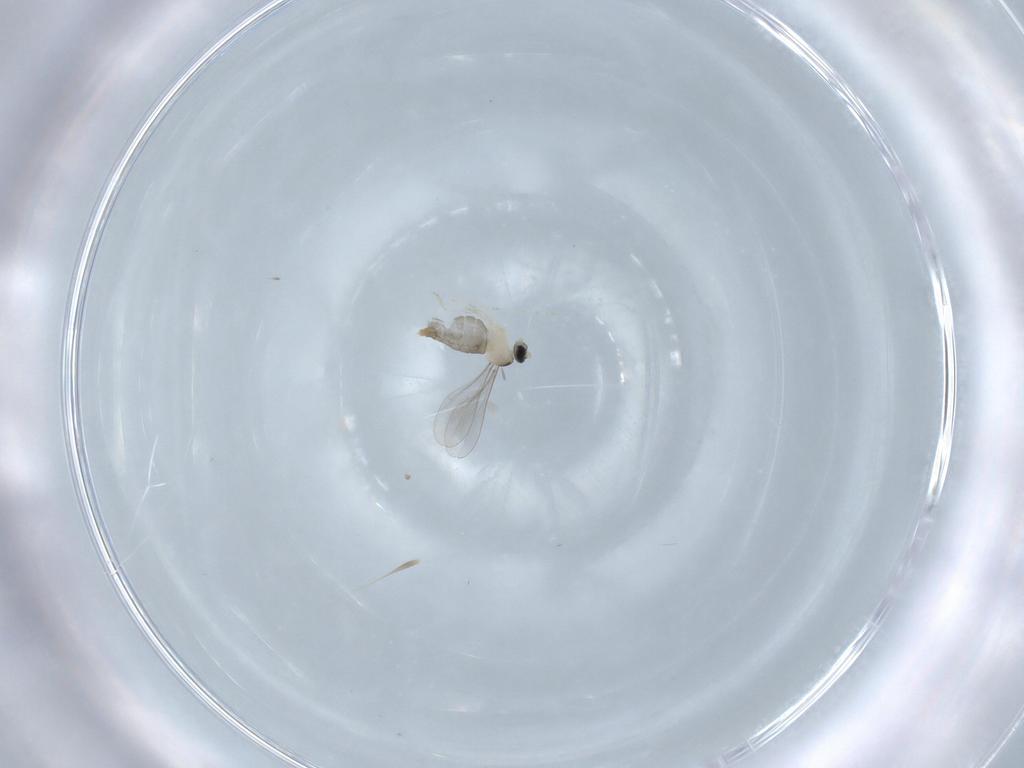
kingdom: Animalia
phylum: Arthropoda
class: Insecta
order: Diptera
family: Cecidomyiidae
